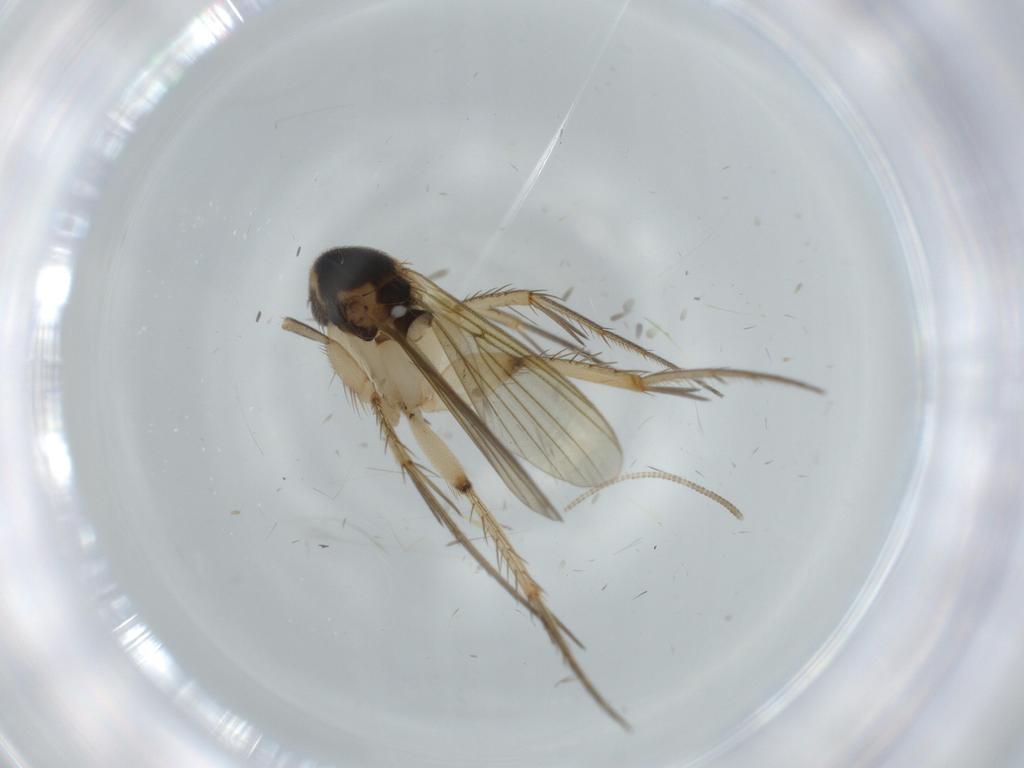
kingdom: Animalia
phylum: Arthropoda
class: Insecta
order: Diptera
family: Mycetophilidae
